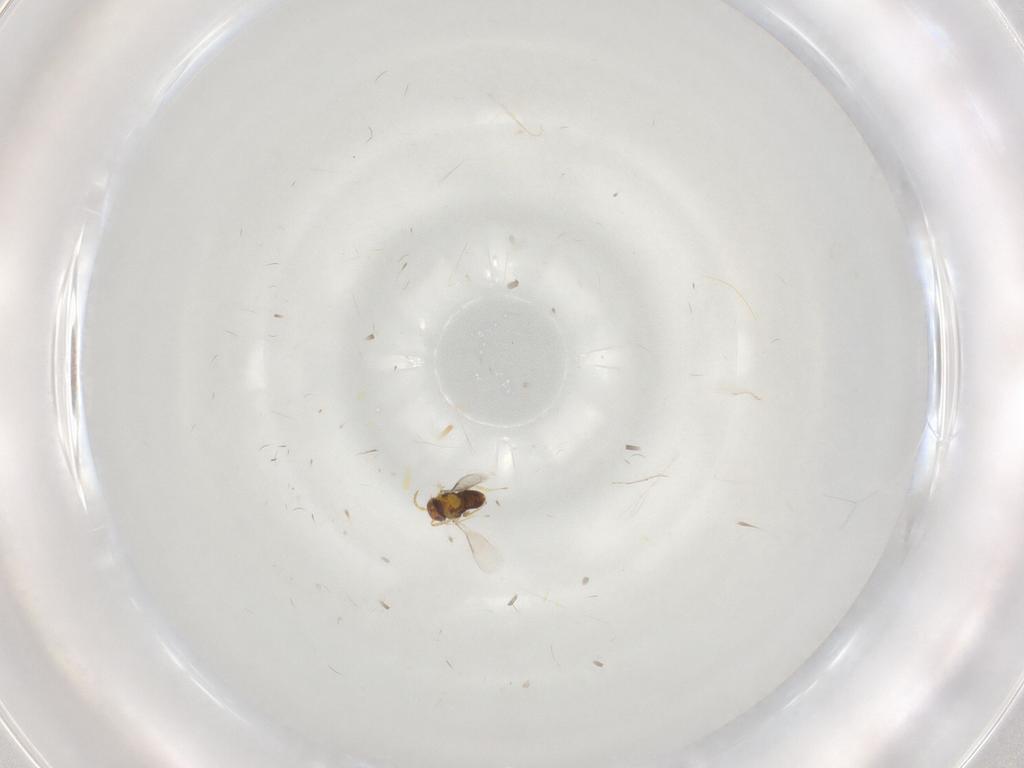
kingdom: Animalia
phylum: Arthropoda
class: Insecta
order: Hymenoptera
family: Aphelinidae
